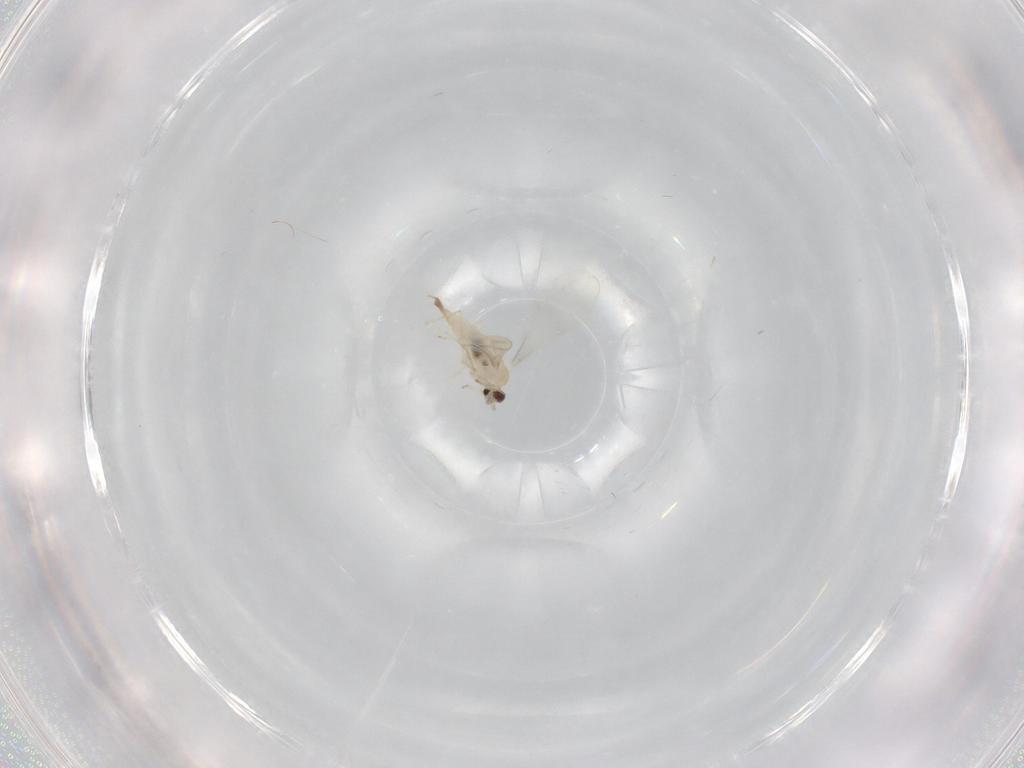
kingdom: Animalia
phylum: Arthropoda
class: Insecta
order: Diptera
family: Cecidomyiidae
